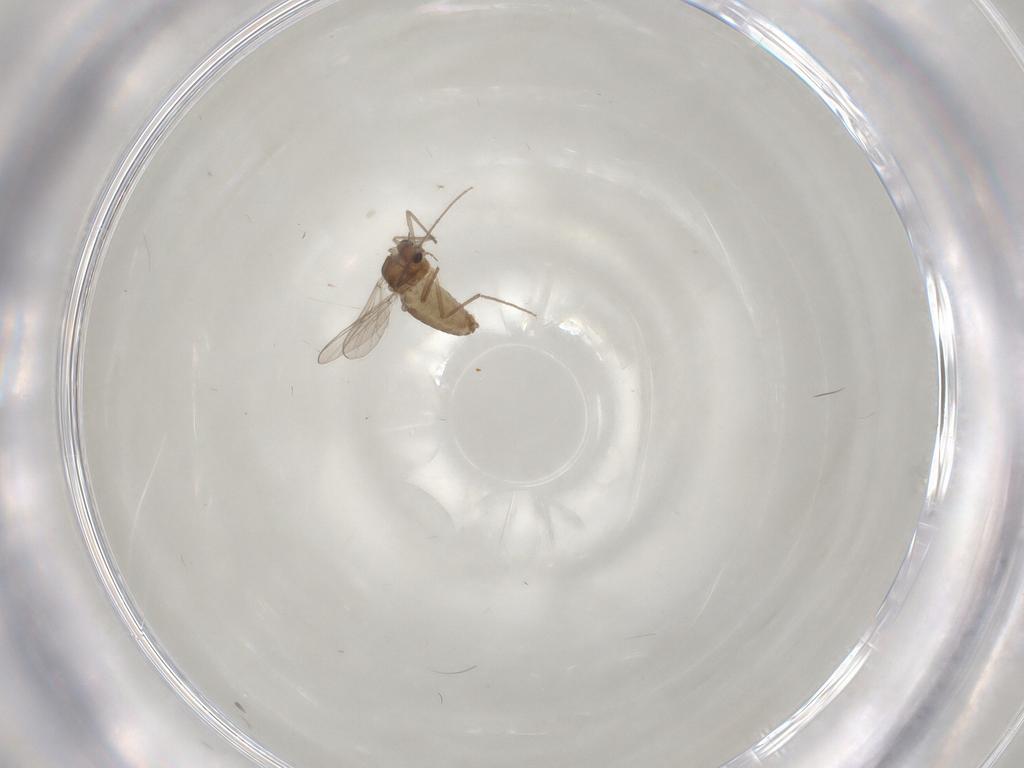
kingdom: Animalia
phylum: Arthropoda
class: Insecta
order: Diptera
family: Chironomidae
